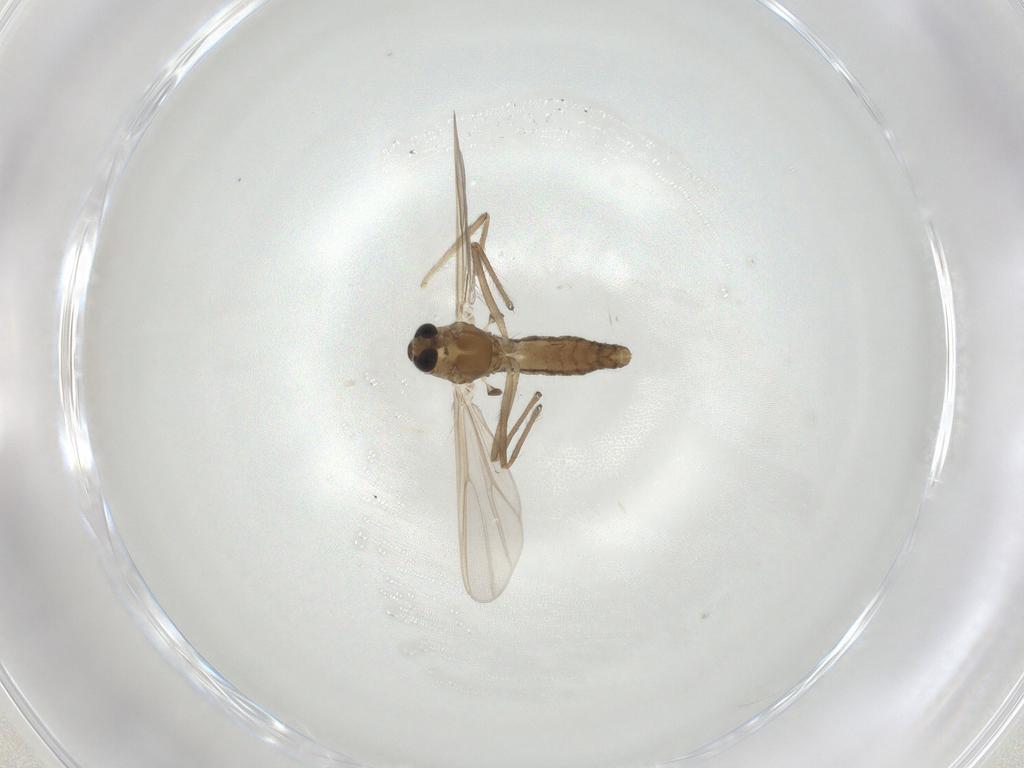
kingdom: Animalia
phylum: Arthropoda
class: Insecta
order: Diptera
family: Chironomidae
